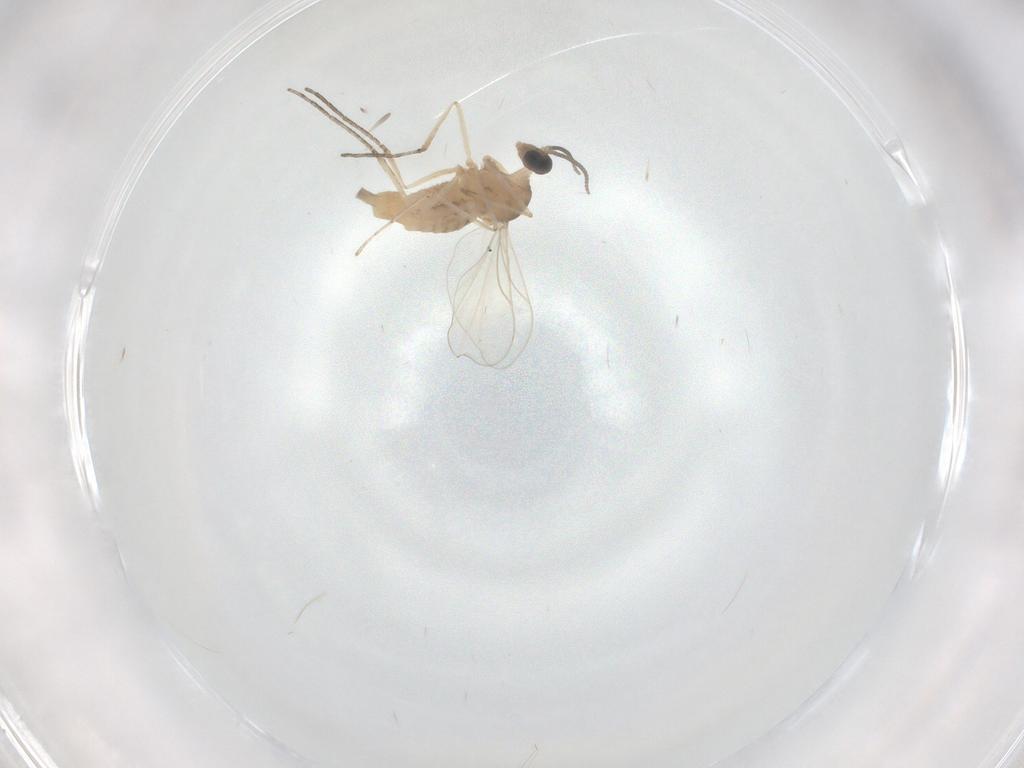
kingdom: Animalia
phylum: Arthropoda
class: Insecta
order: Diptera
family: Cecidomyiidae
